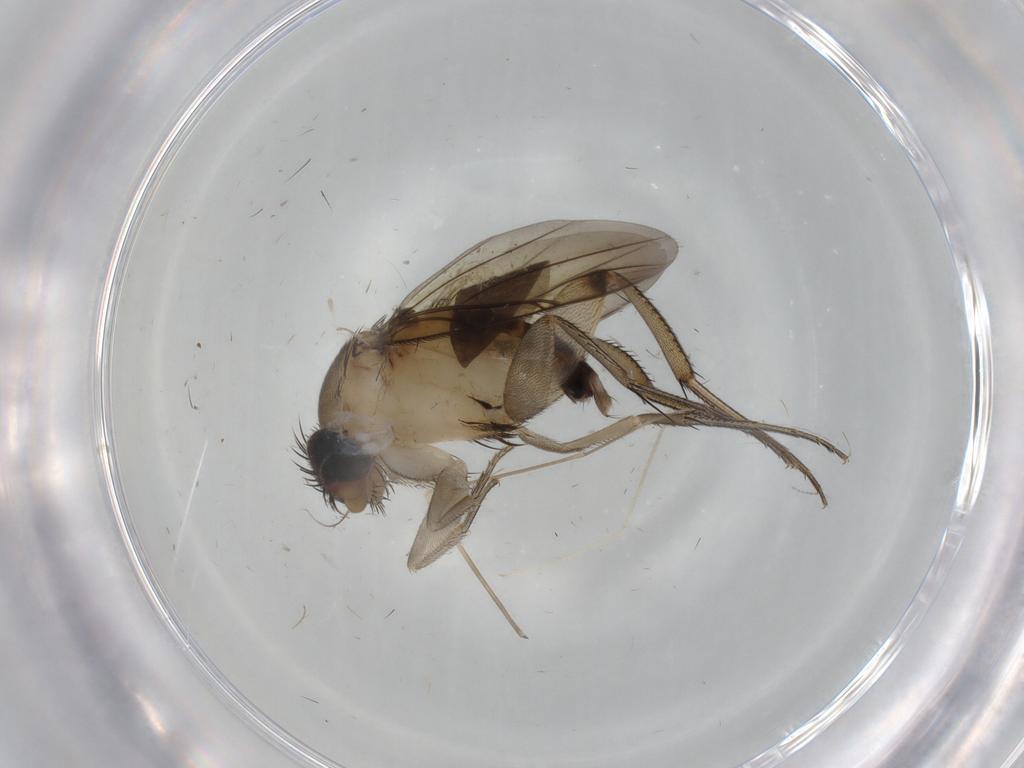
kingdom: Animalia
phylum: Arthropoda
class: Insecta
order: Diptera
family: Phoridae
